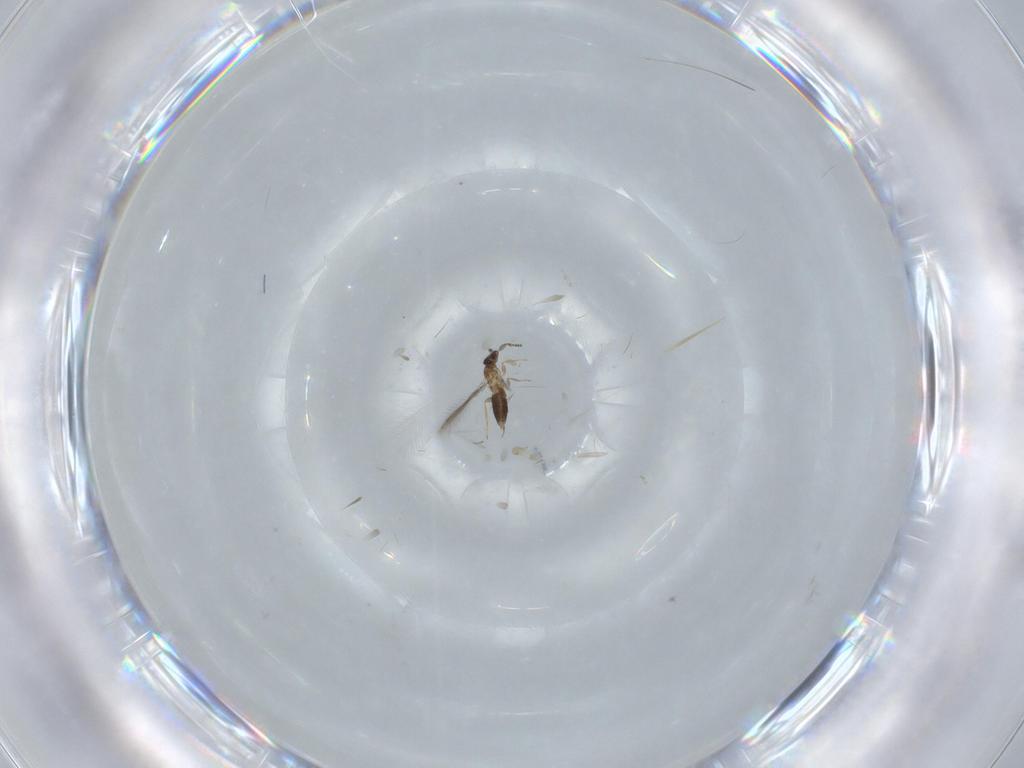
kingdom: Animalia
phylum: Arthropoda
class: Insecta
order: Hymenoptera
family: Mymaridae
